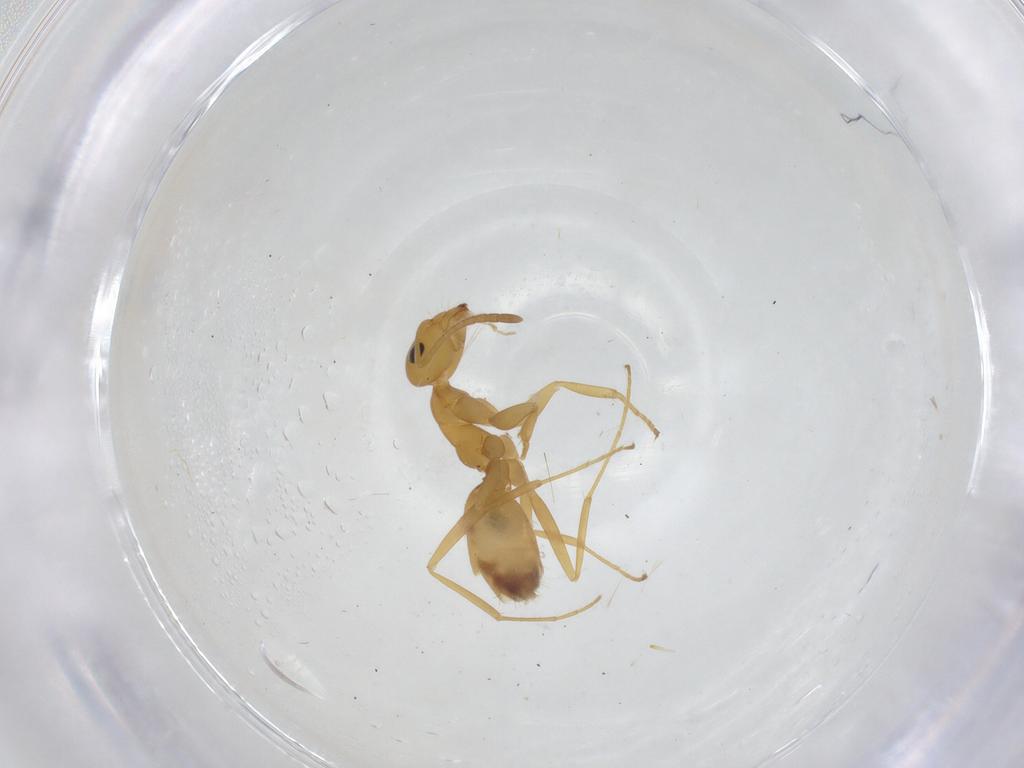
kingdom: Animalia
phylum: Arthropoda
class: Insecta
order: Hymenoptera
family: Formicidae
